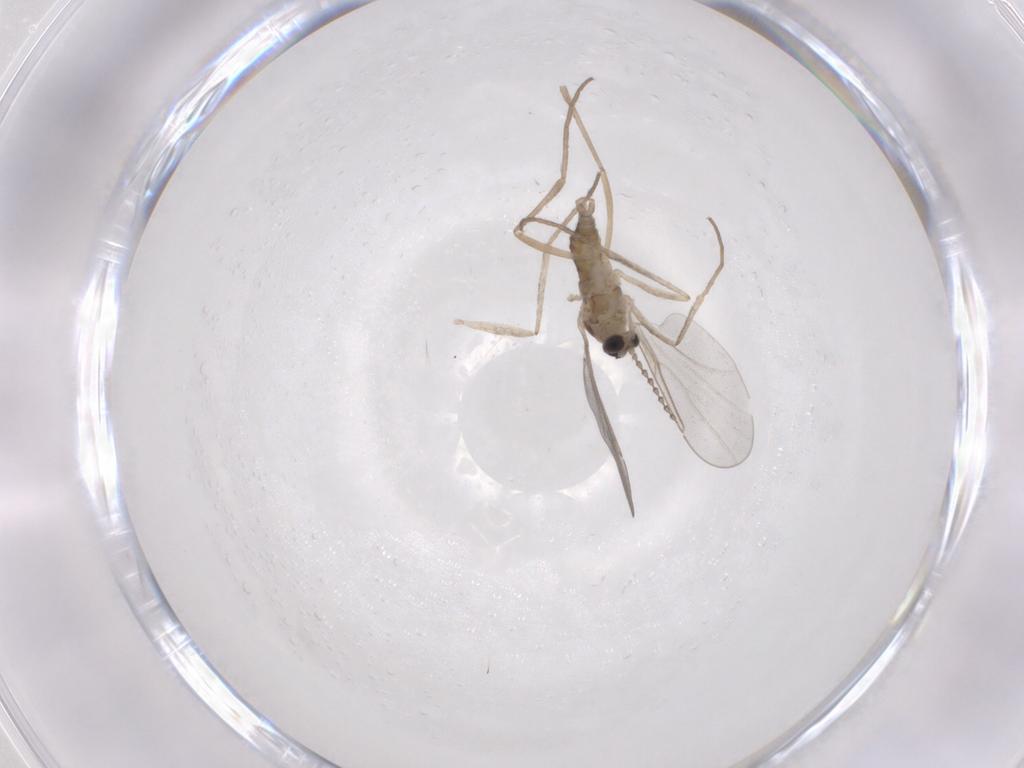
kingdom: Animalia
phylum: Arthropoda
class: Insecta
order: Diptera
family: Cecidomyiidae
